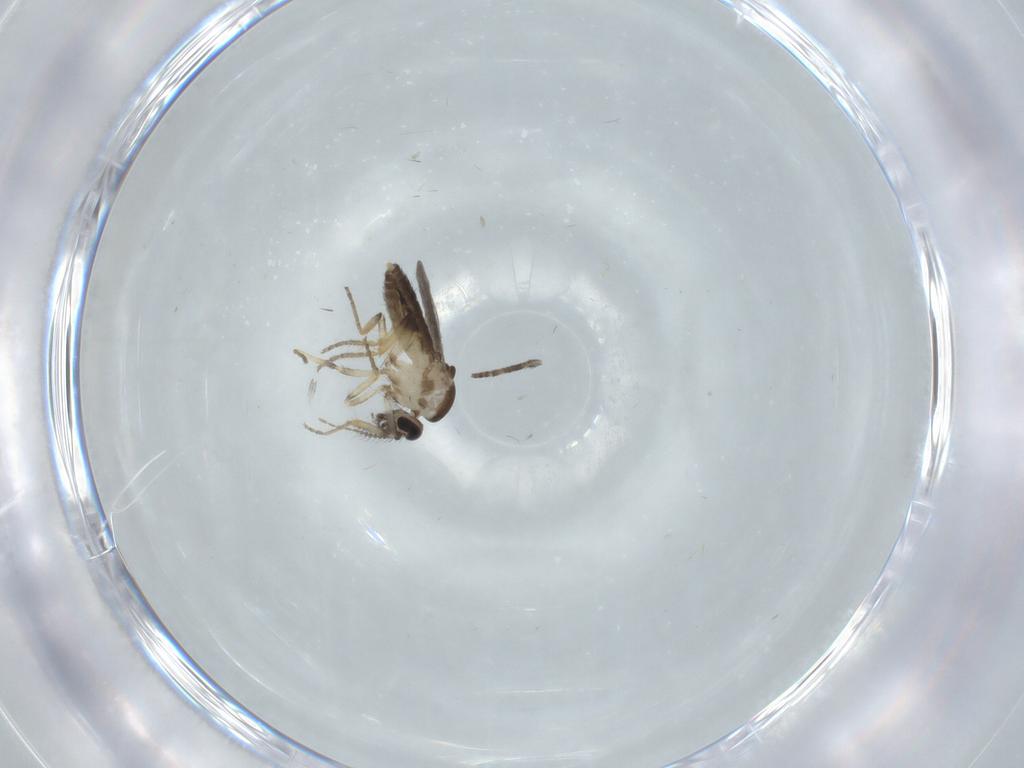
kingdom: Animalia
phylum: Arthropoda
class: Insecta
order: Diptera
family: Ceratopogonidae
